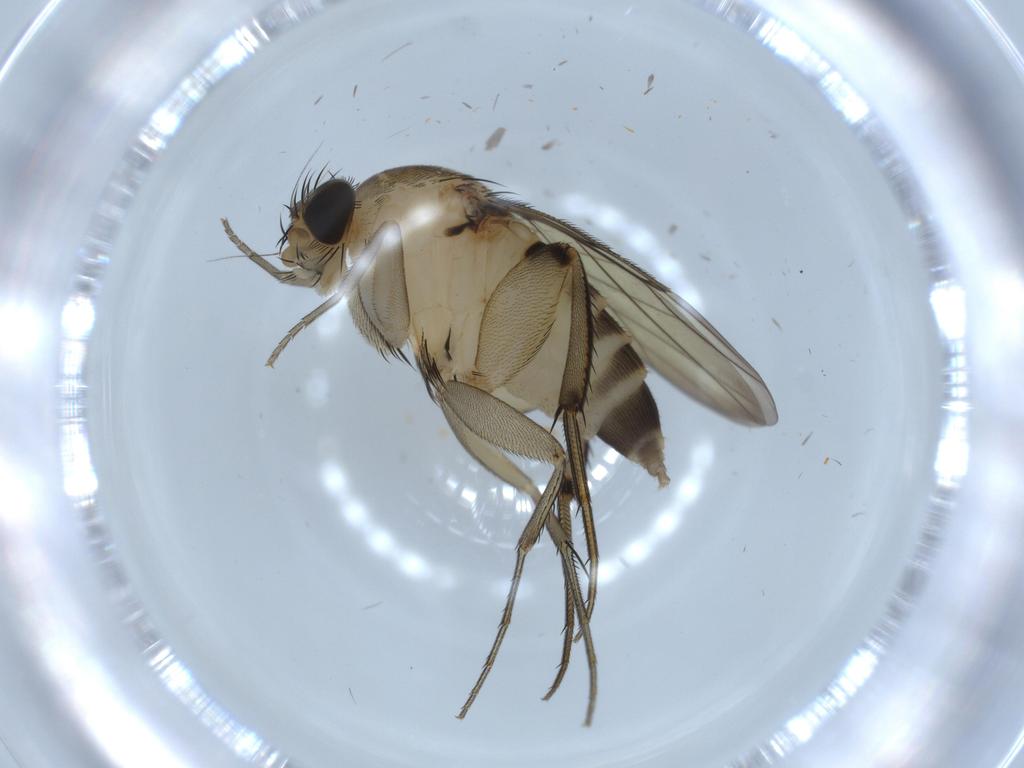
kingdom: Animalia
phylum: Arthropoda
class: Insecta
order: Diptera
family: Phoridae
